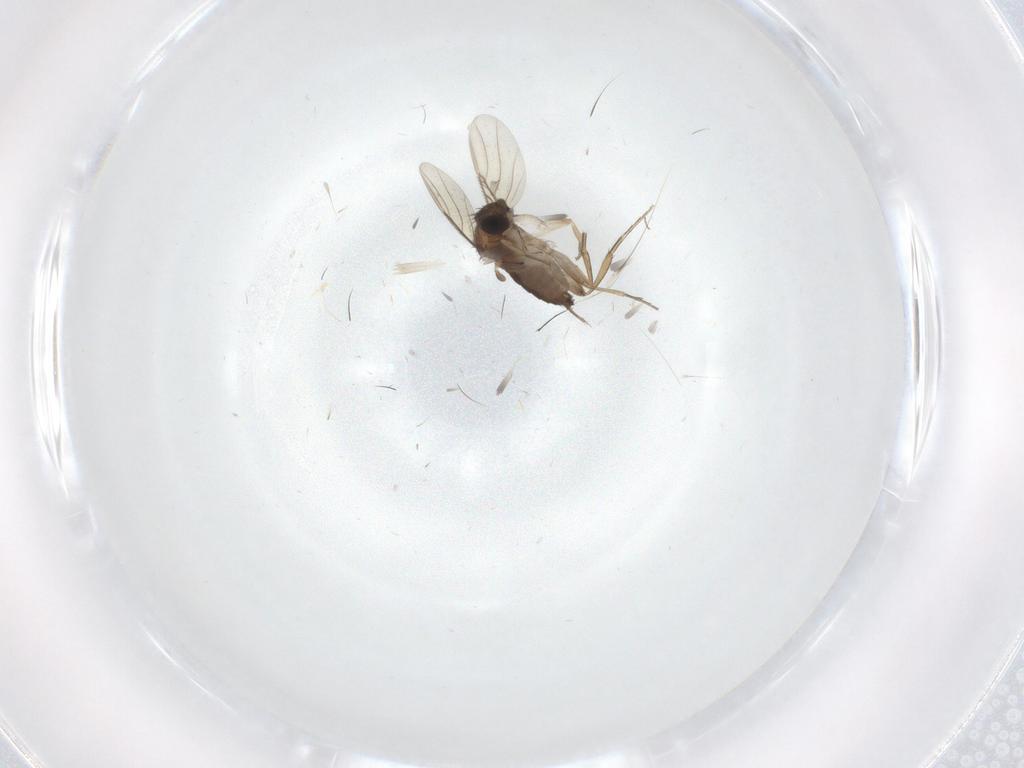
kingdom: Animalia
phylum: Arthropoda
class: Insecta
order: Diptera
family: Phoridae
